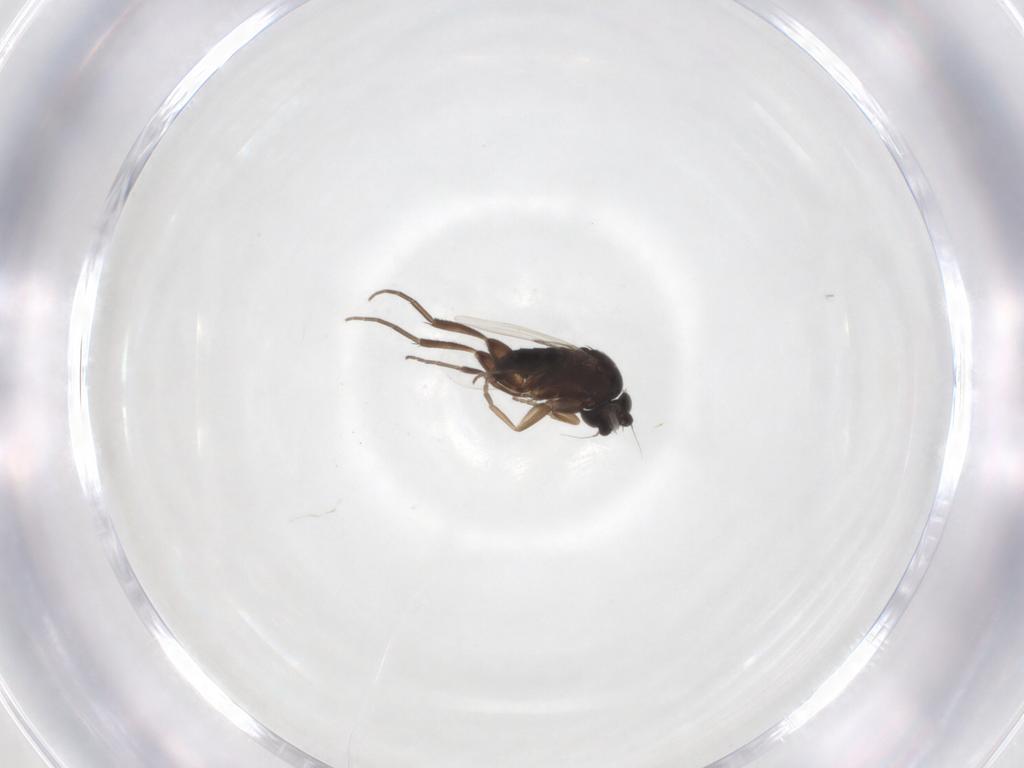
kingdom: Animalia
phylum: Arthropoda
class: Insecta
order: Diptera
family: Phoridae
